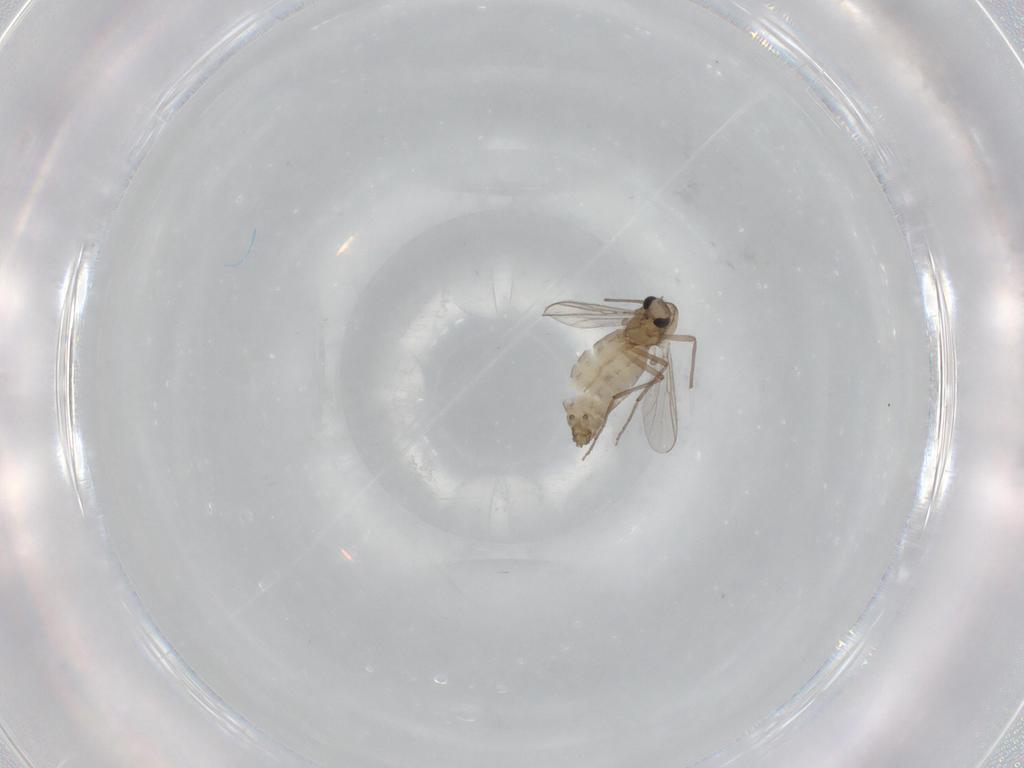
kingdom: Animalia
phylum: Arthropoda
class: Insecta
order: Diptera
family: Chironomidae
